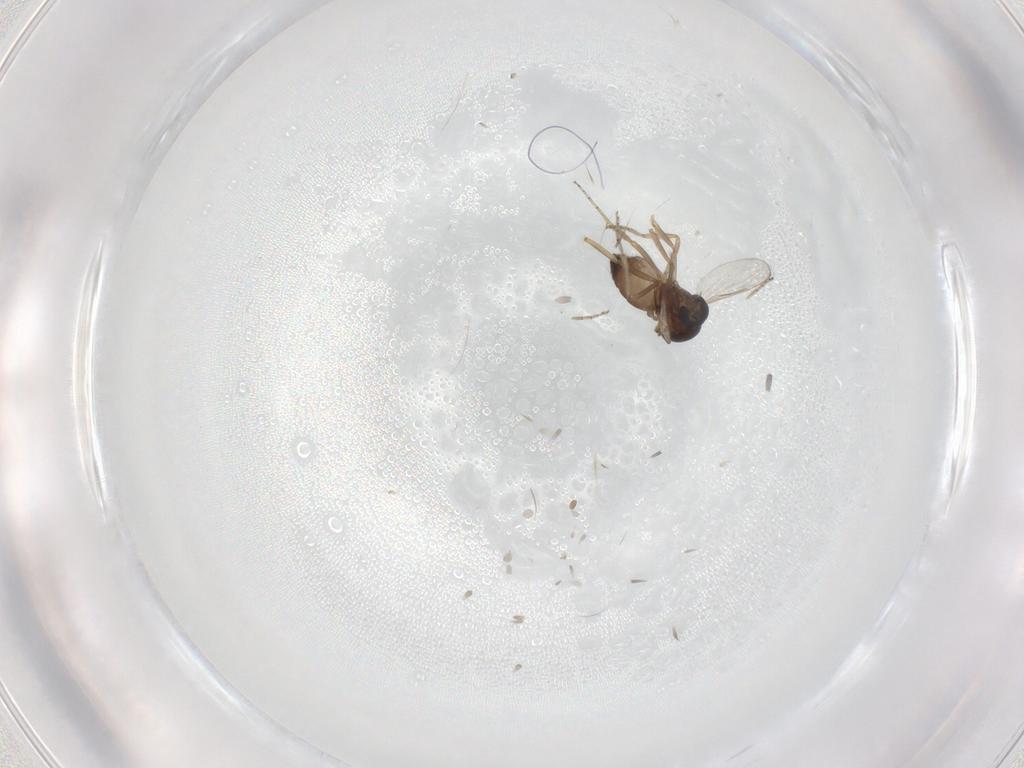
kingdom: Animalia
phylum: Arthropoda
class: Insecta
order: Diptera
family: Ceratopogonidae
